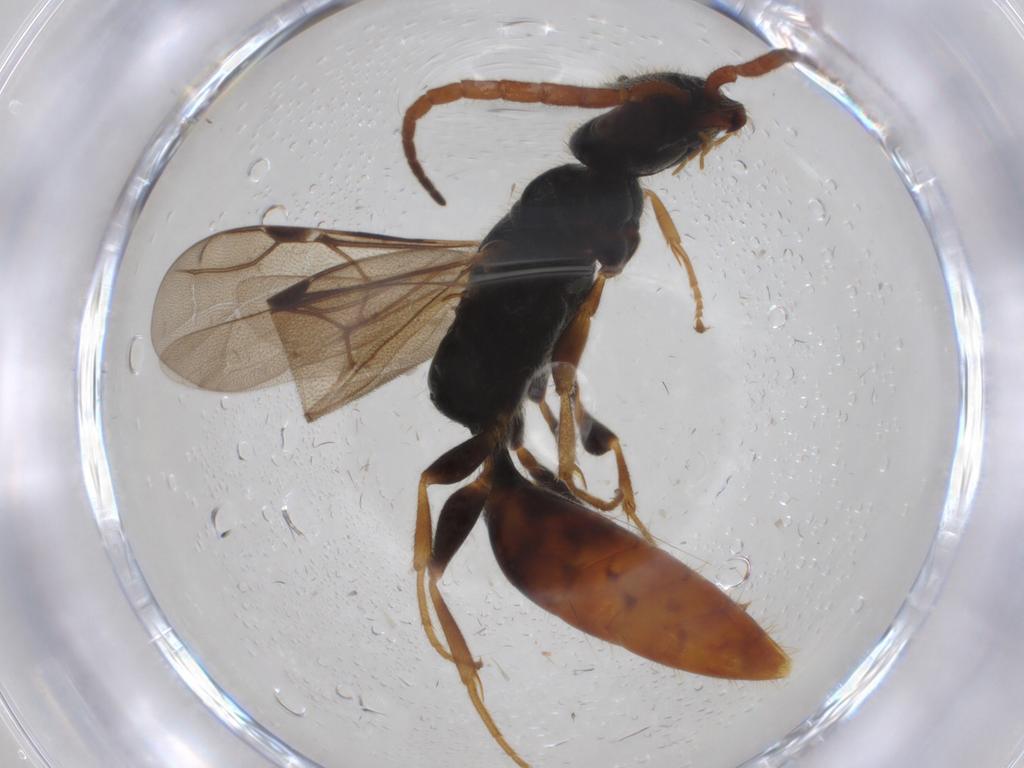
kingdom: Animalia
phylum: Arthropoda
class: Insecta
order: Hymenoptera
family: Bethylidae
